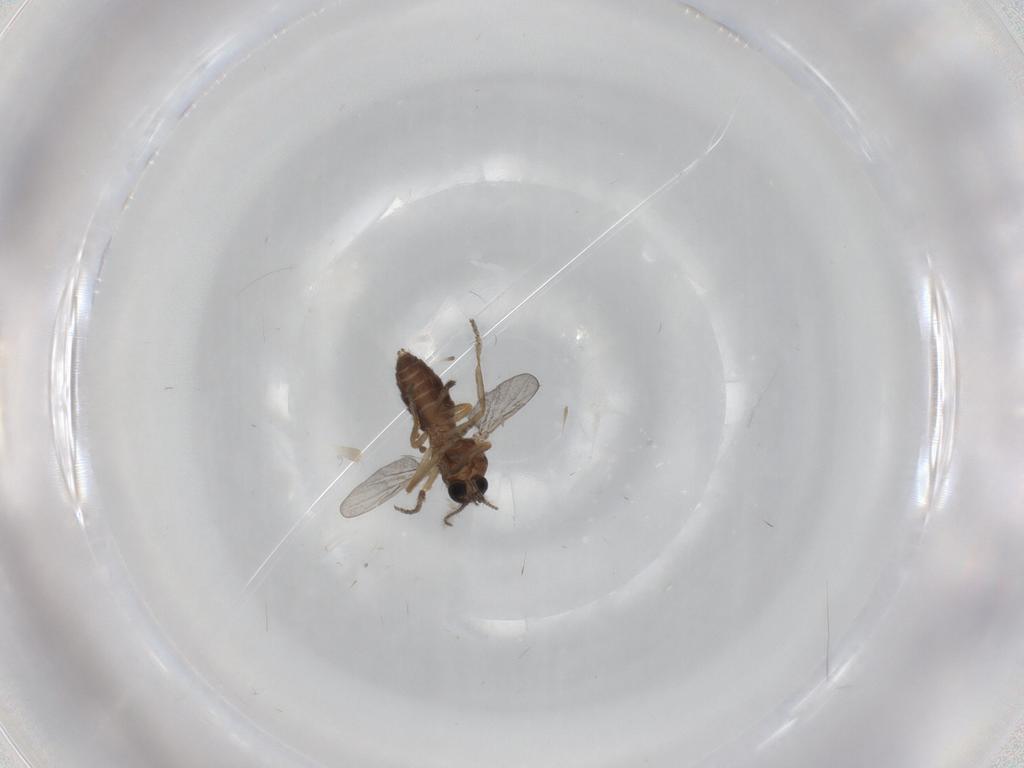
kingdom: Animalia
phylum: Arthropoda
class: Insecta
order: Diptera
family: Ceratopogonidae
